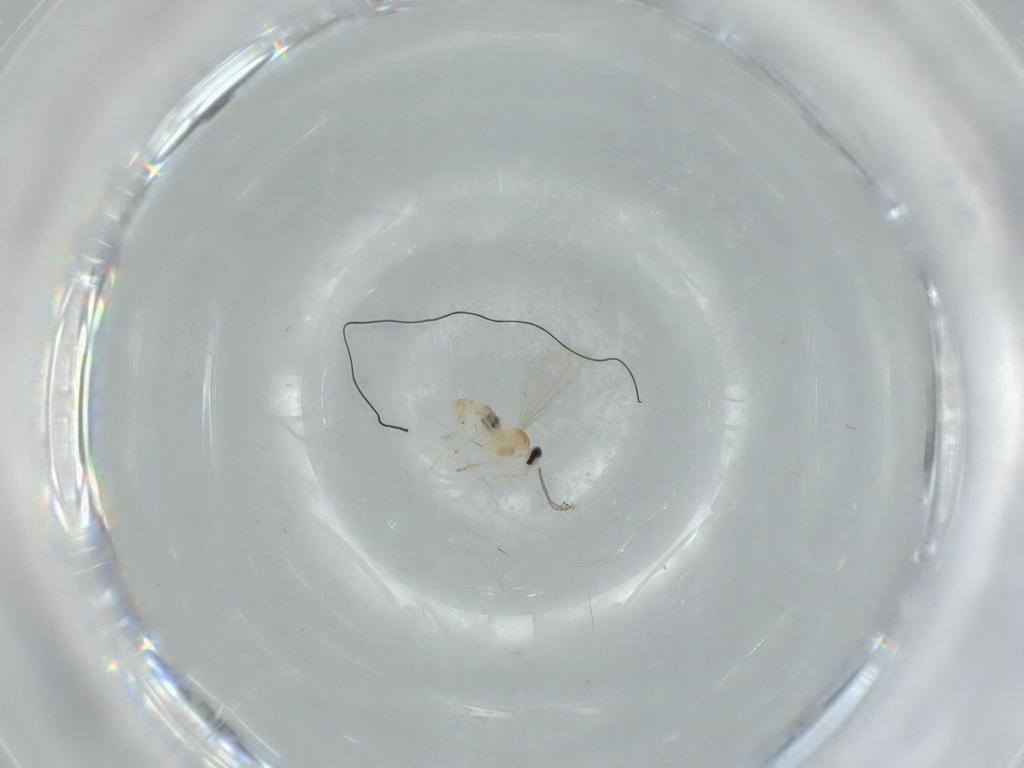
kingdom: Animalia
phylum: Arthropoda
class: Insecta
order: Diptera
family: Cecidomyiidae
